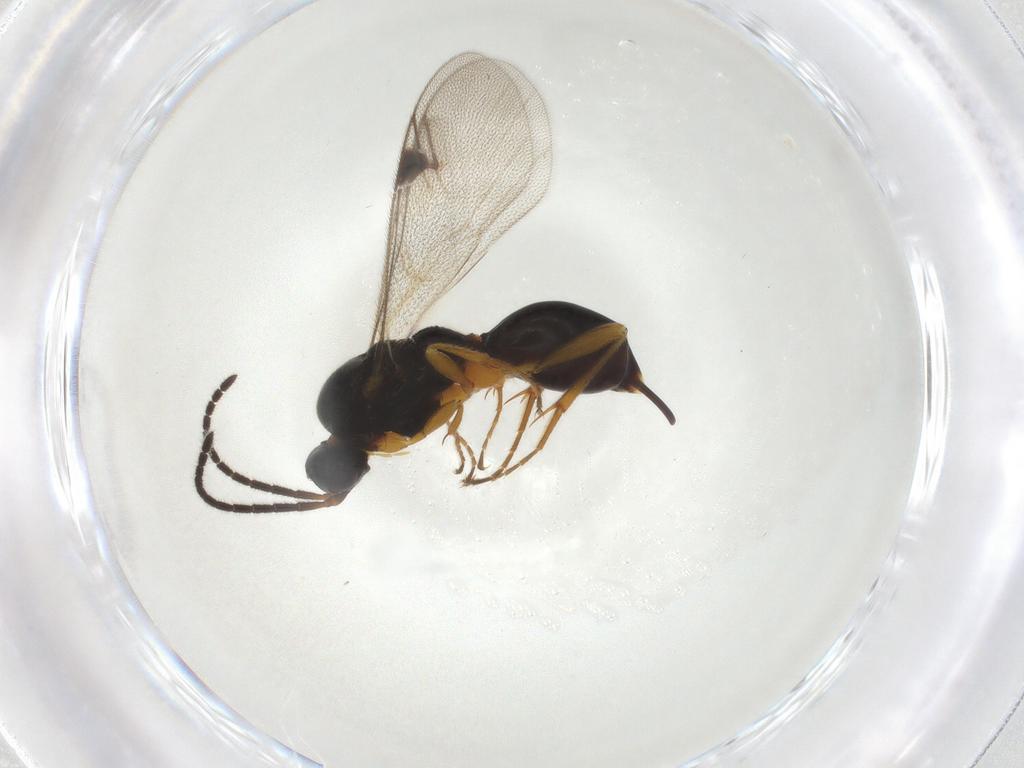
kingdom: Animalia
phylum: Arthropoda
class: Insecta
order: Hymenoptera
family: Proctotrupidae
